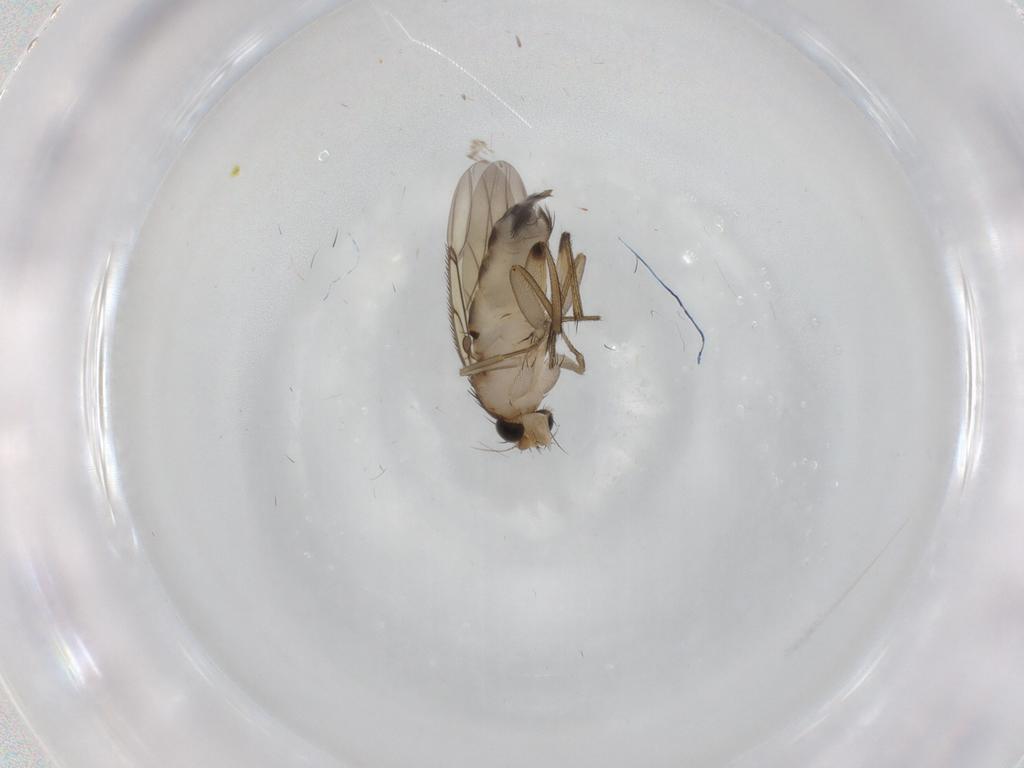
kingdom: Animalia
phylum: Arthropoda
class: Insecta
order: Diptera
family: Phoridae
